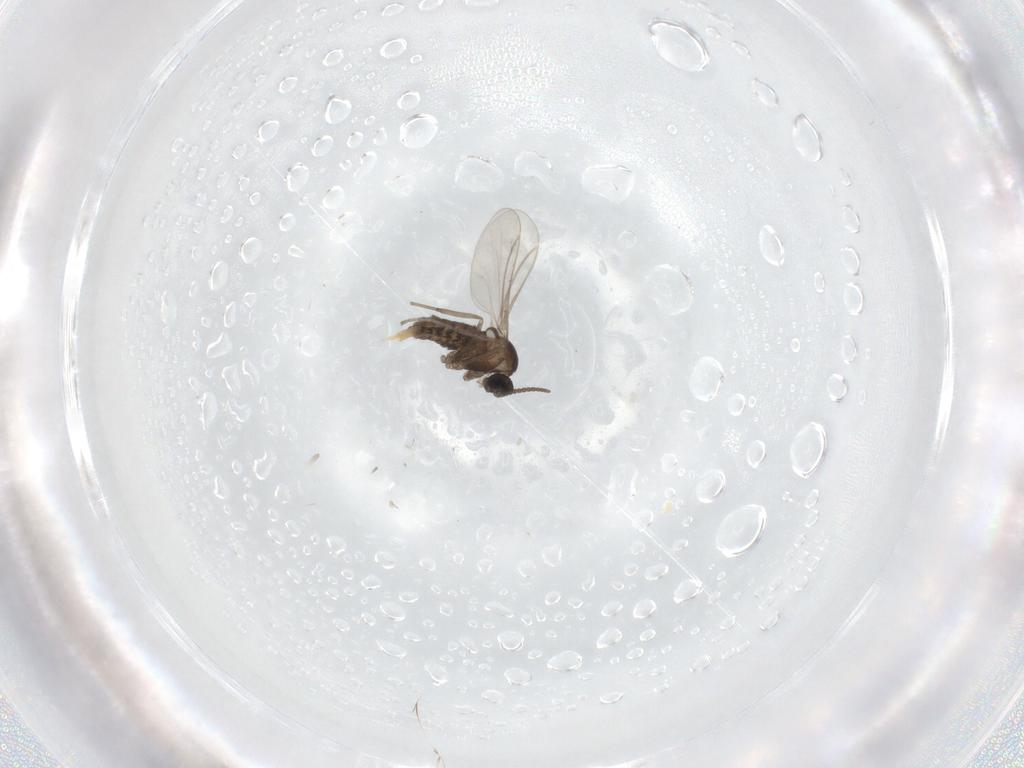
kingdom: Animalia
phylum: Arthropoda
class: Insecta
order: Diptera
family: Cecidomyiidae
